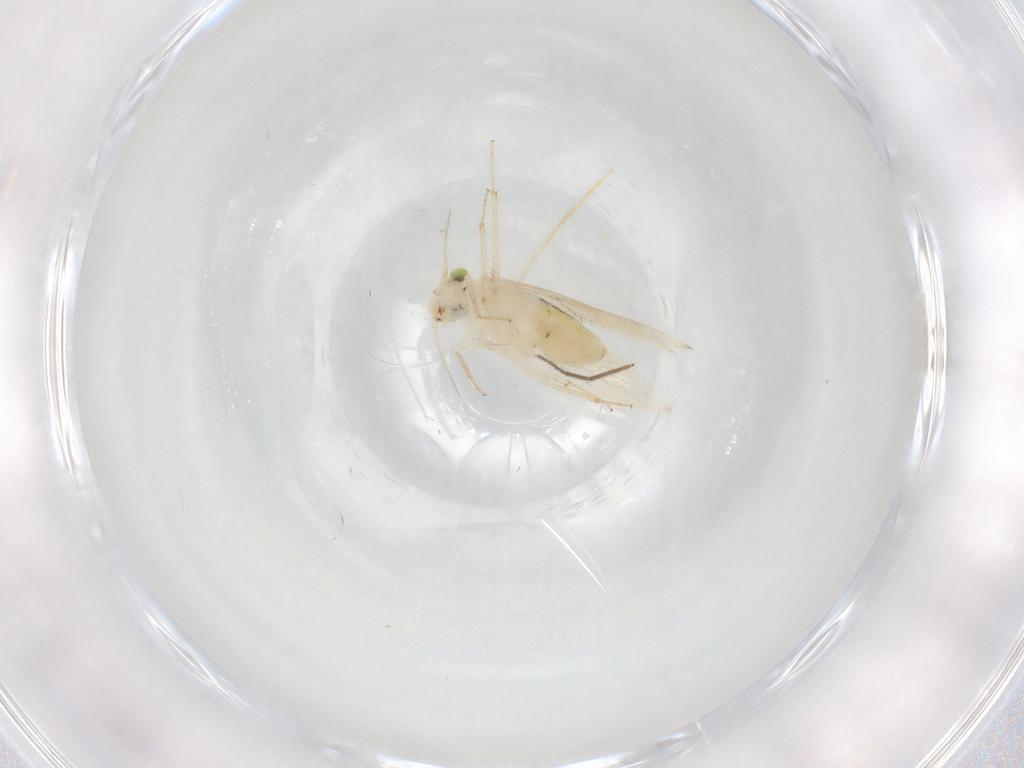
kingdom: Animalia
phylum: Arthropoda
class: Insecta
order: Psocodea
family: Lepidopsocidae
